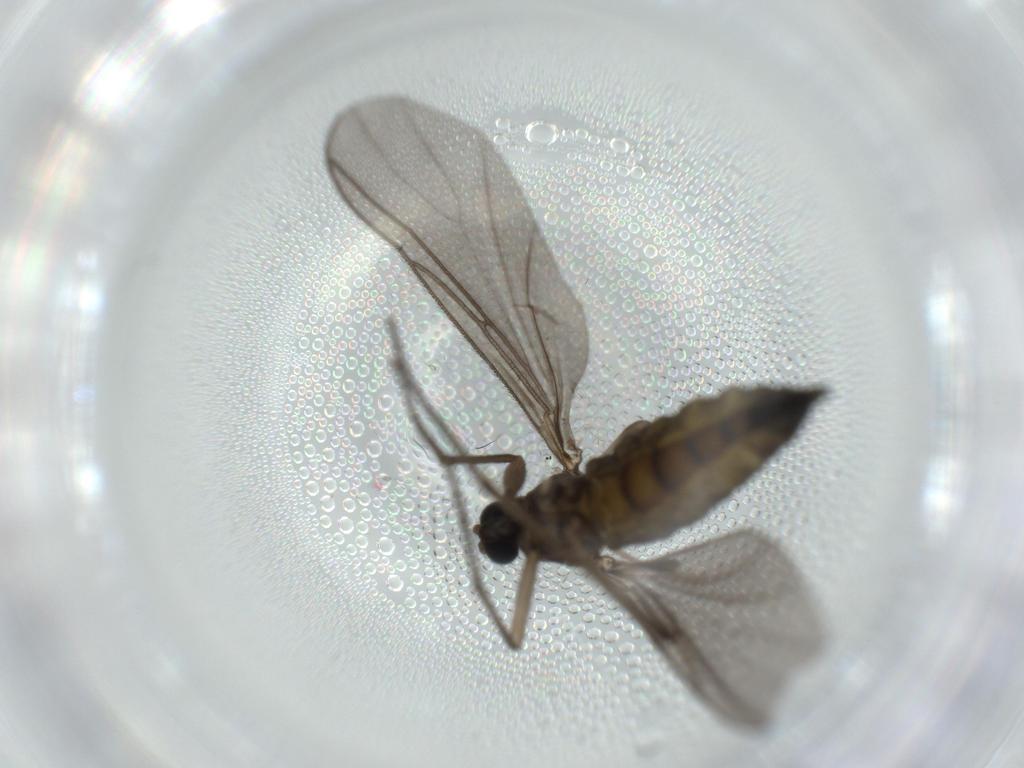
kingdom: Animalia
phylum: Arthropoda
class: Insecta
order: Diptera
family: Sciaridae
